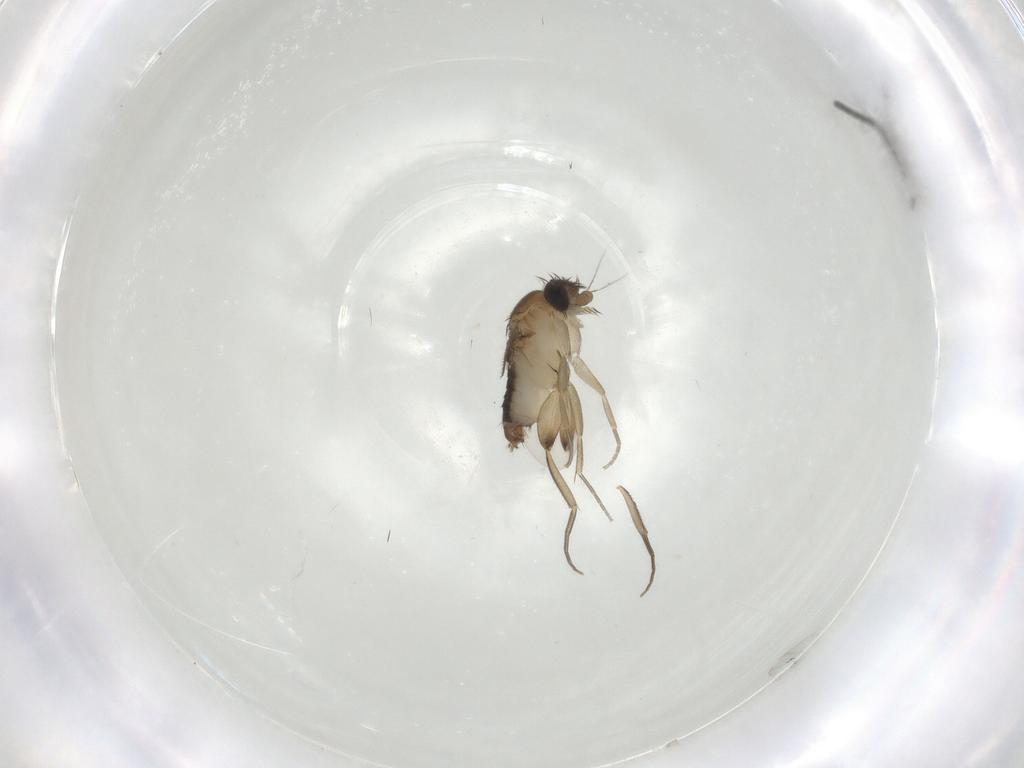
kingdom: Animalia
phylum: Arthropoda
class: Insecta
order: Diptera
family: Phoridae
